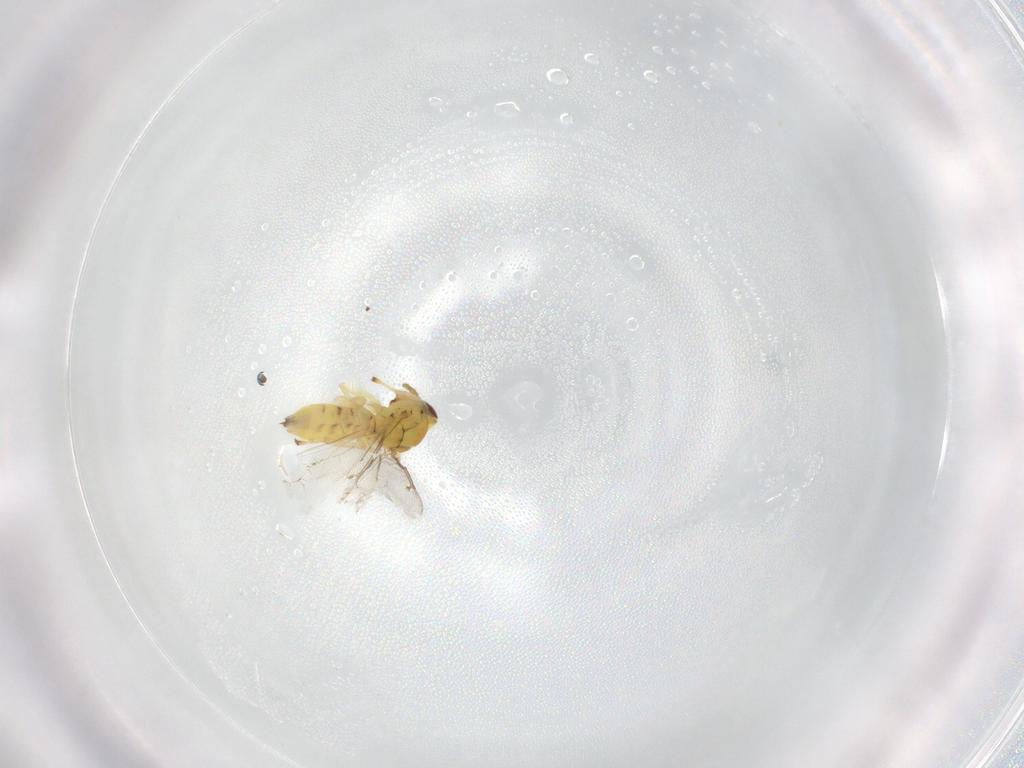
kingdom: Animalia
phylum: Arthropoda
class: Insecta
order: Hymenoptera
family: Eulophidae
